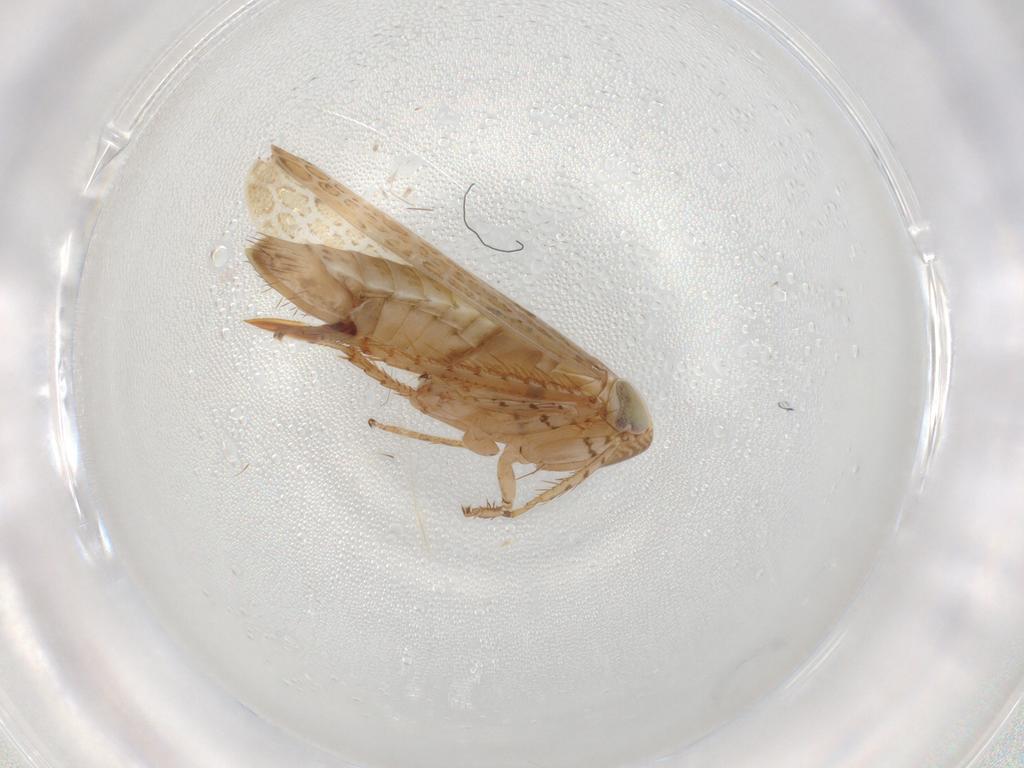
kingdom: Animalia
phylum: Arthropoda
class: Insecta
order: Hemiptera
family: Cicadellidae
